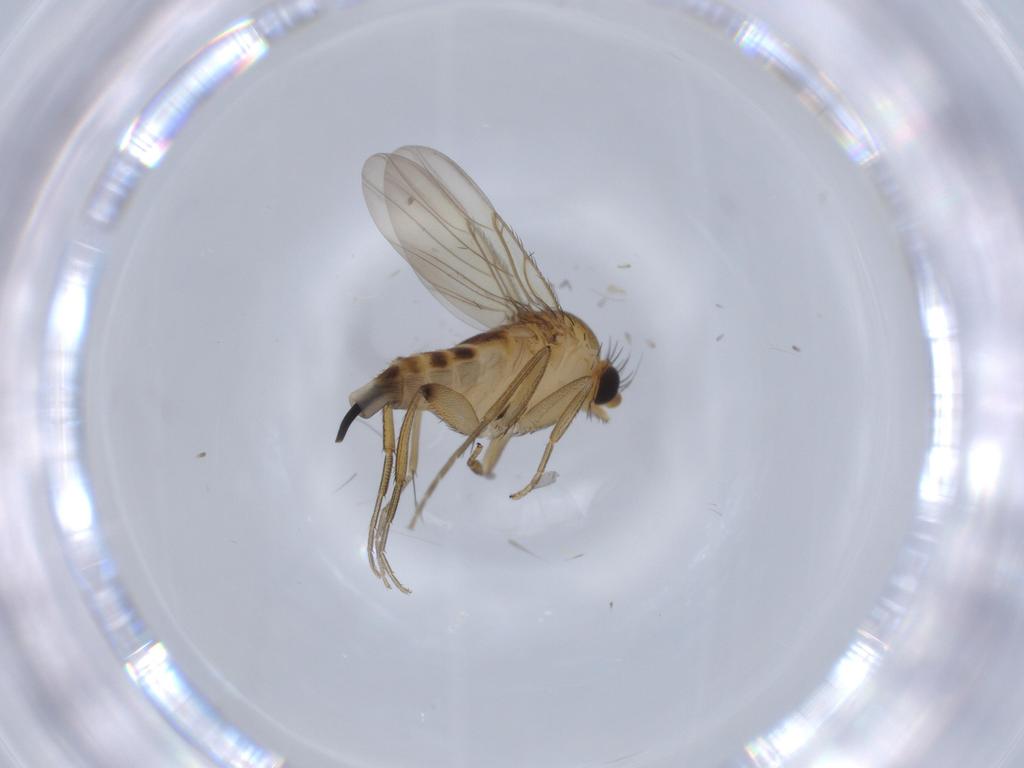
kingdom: Animalia
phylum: Arthropoda
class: Insecta
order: Diptera
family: Phoridae
